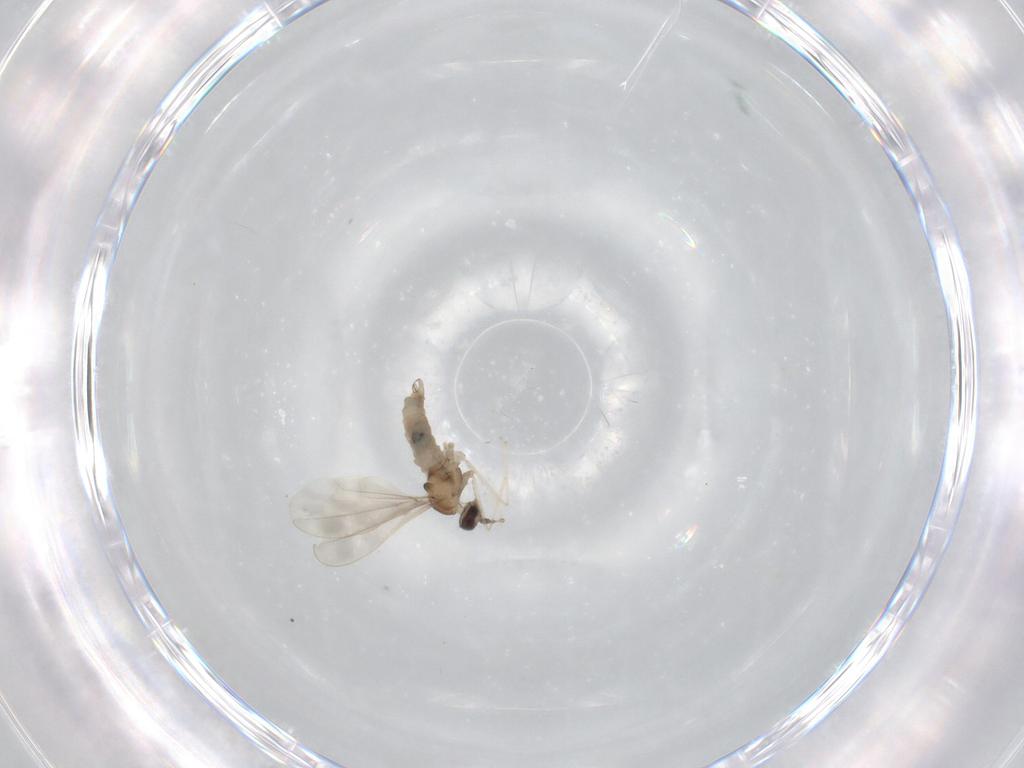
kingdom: Animalia
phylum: Arthropoda
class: Insecta
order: Diptera
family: Cecidomyiidae
